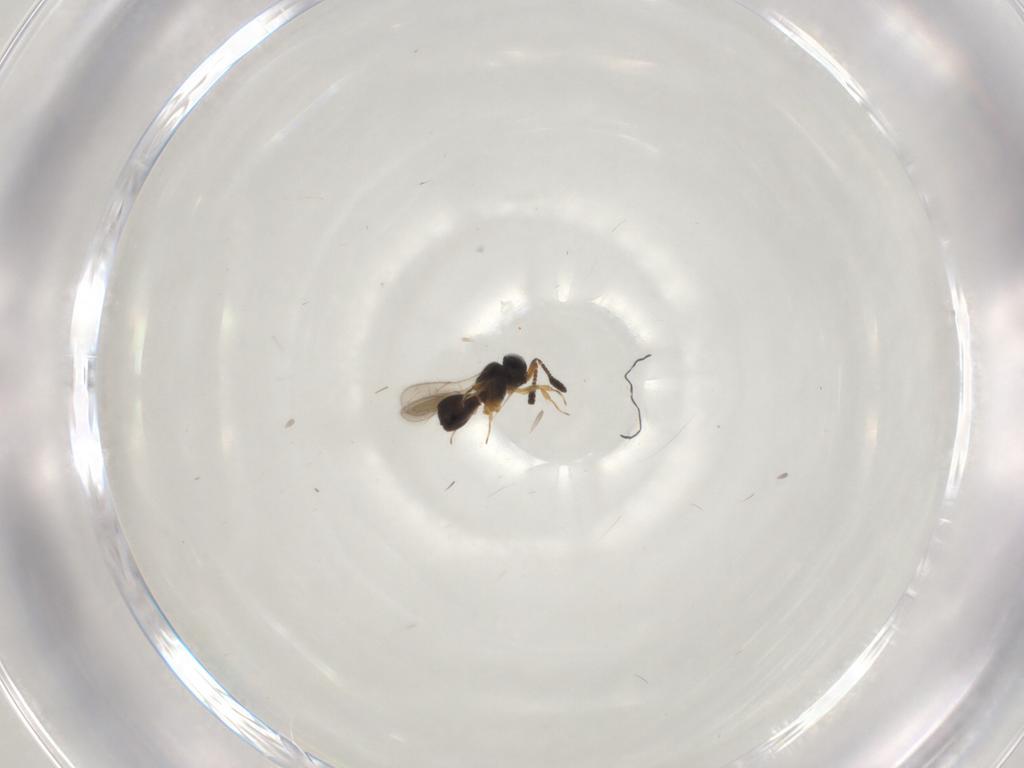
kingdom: Animalia
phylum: Arthropoda
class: Insecta
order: Hymenoptera
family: Scelionidae
